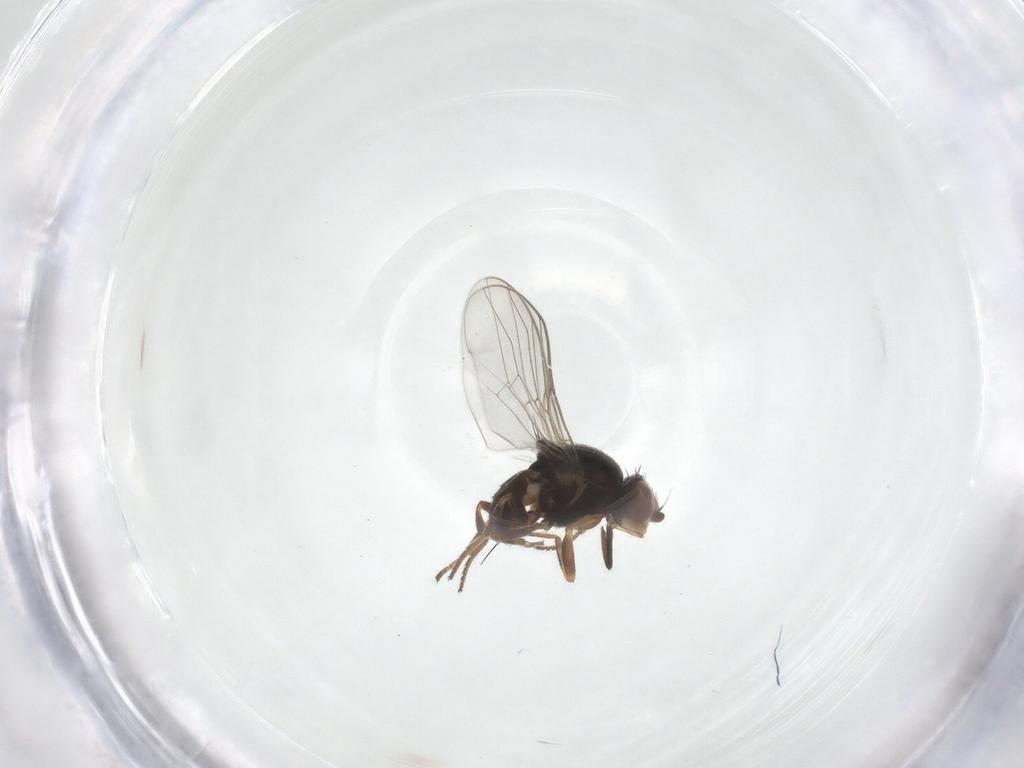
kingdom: Animalia
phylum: Arthropoda
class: Insecta
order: Diptera
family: Chloropidae
